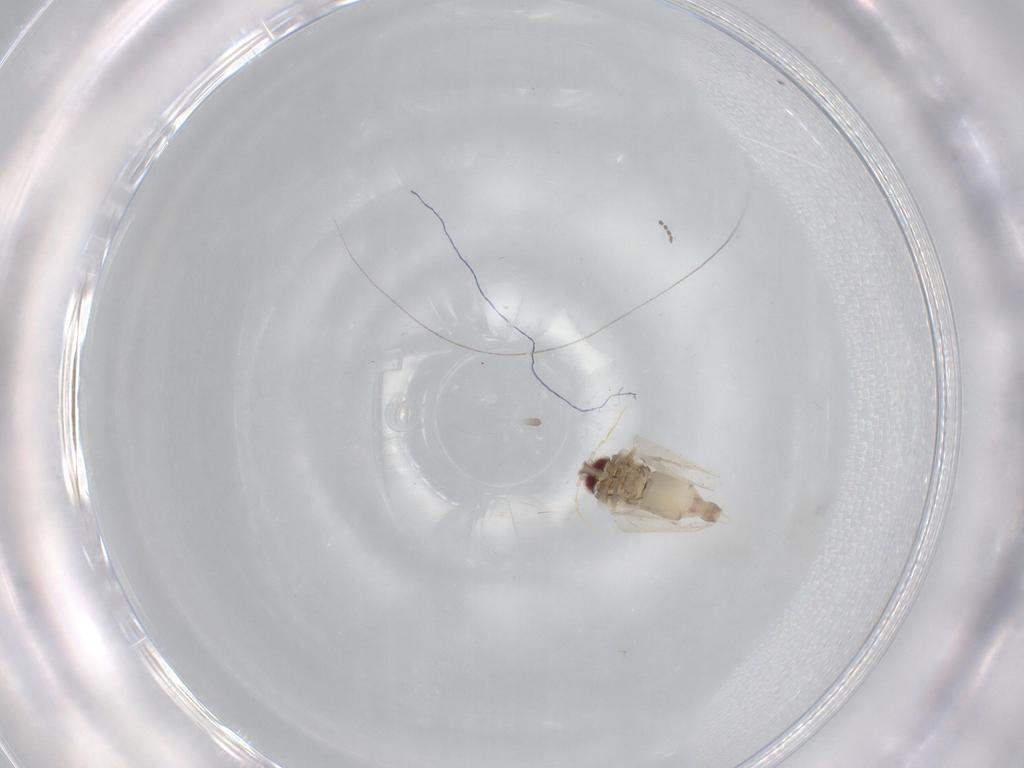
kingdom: Animalia
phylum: Arthropoda
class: Insecta
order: Hemiptera
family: Aleyrodidae
